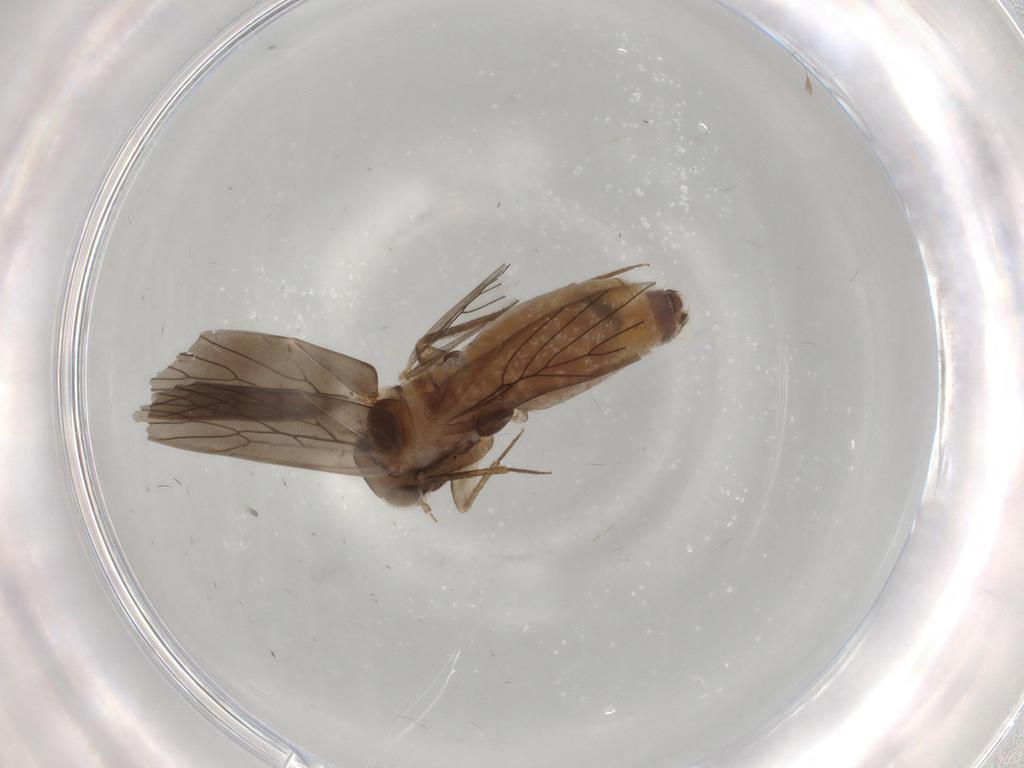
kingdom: Animalia
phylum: Arthropoda
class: Insecta
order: Psocodea
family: Lepidopsocidae
